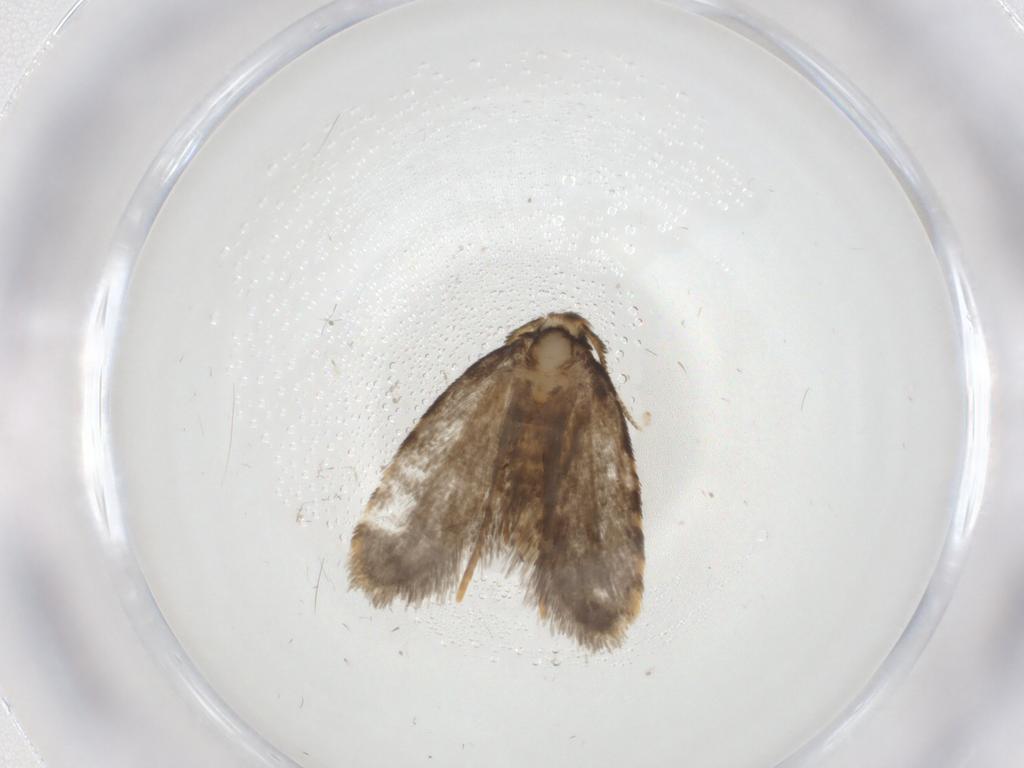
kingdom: Animalia
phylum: Arthropoda
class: Insecta
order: Lepidoptera
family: Psychidae
